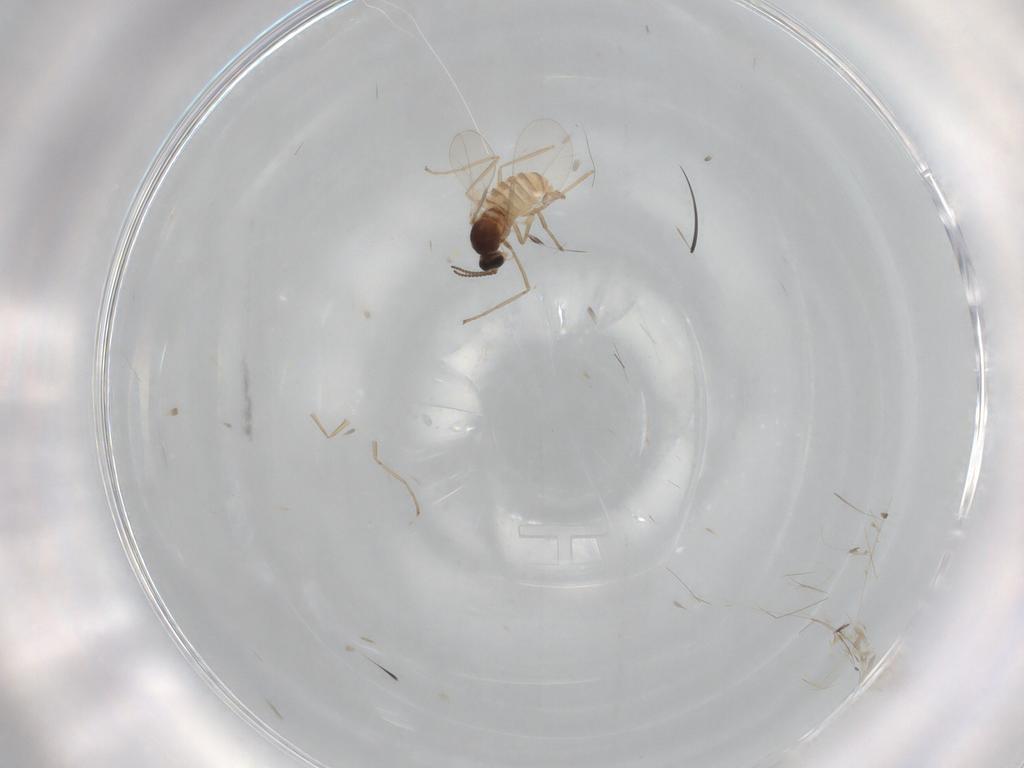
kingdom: Animalia
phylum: Arthropoda
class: Insecta
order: Diptera
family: Cecidomyiidae
